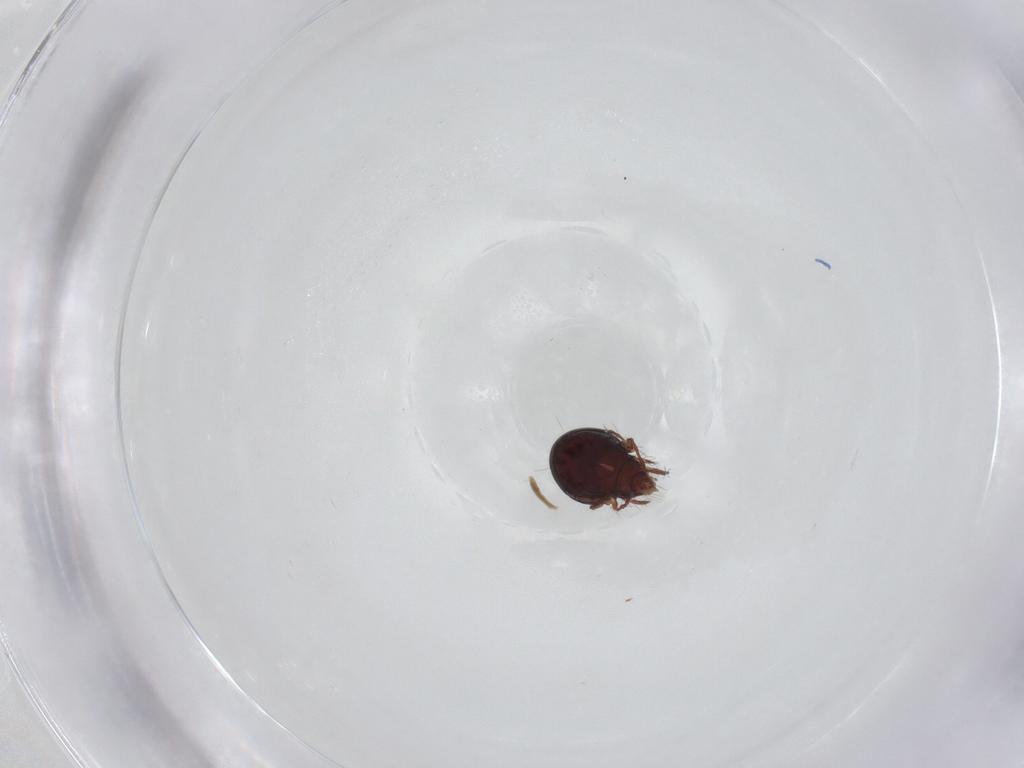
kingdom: Animalia
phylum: Arthropoda
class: Arachnida
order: Sarcoptiformes
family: Ceratoppiidae
